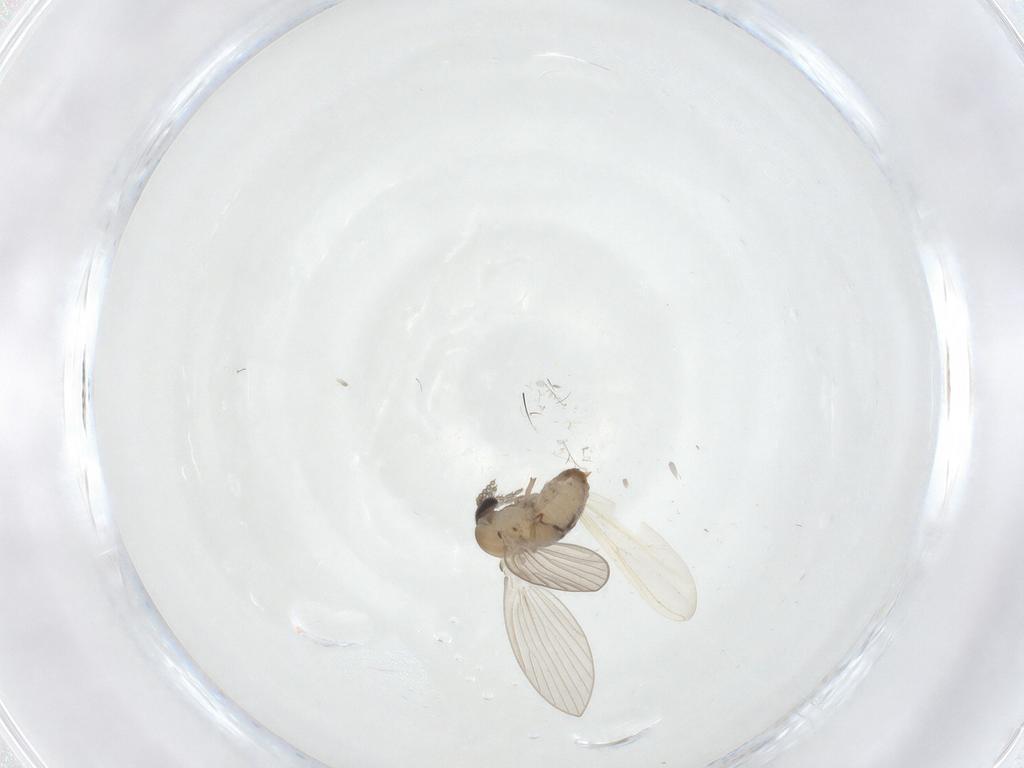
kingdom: Animalia
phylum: Arthropoda
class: Insecta
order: Diptera
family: Psychodidae
